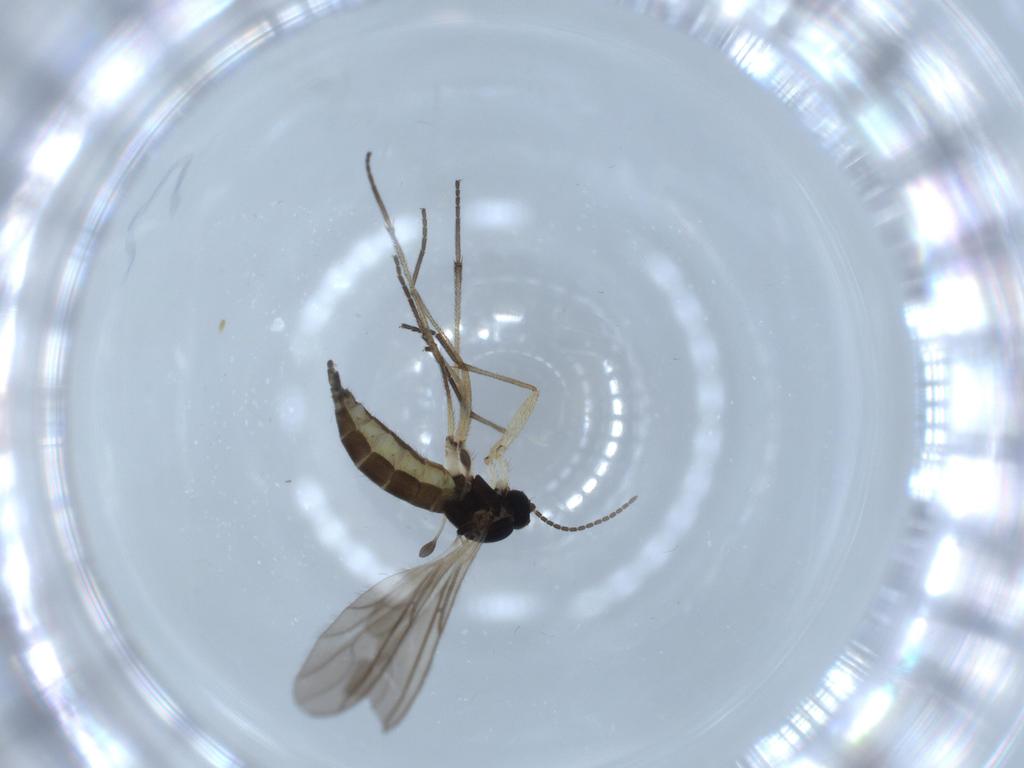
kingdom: Animalia
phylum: Arthropoda
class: Insecta
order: Diptera
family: Sciaridae
